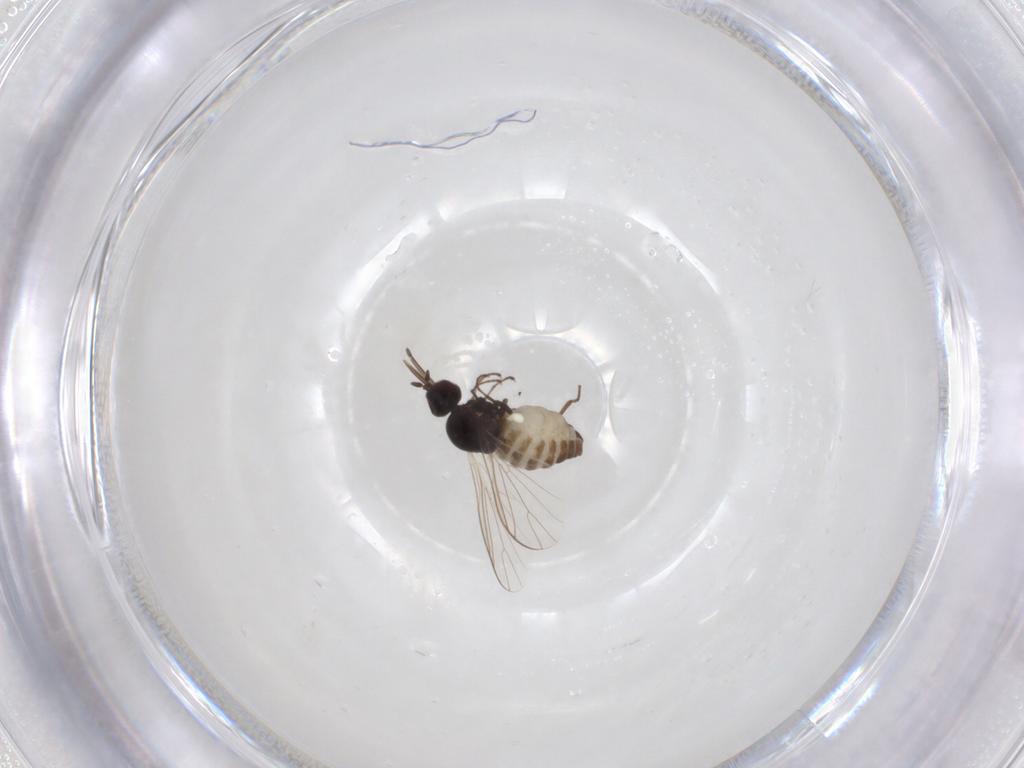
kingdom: Animalia
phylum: Arthropoda
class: Insecta
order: Diptera
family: Bombyliidae
